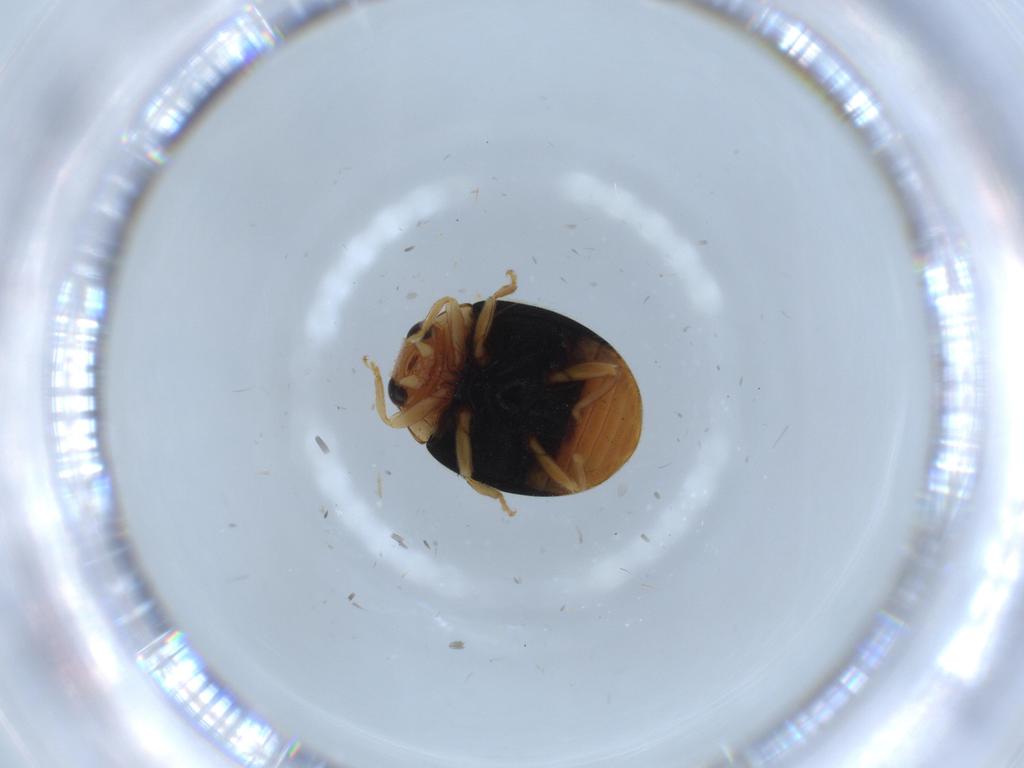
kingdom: Animalia
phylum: Arthropoda
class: Insecta
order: Coleoptera
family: Coccinellidae
